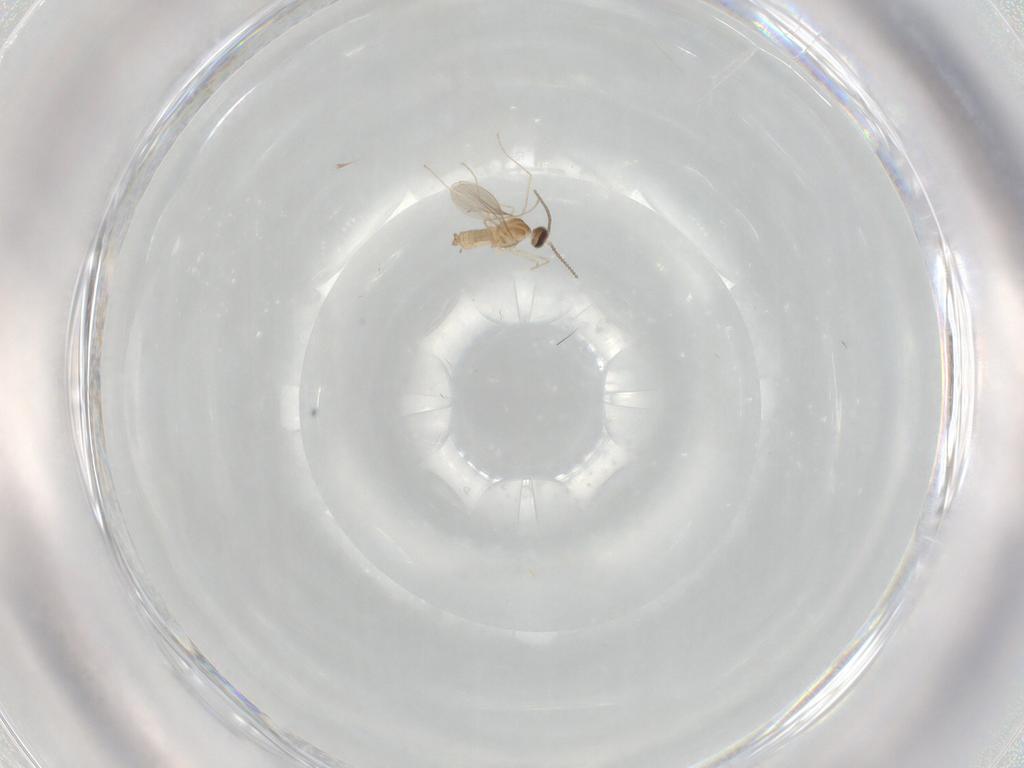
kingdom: Animalia
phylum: Arthropoda
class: Insecta
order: Diptera
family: Cecidomyiidae
